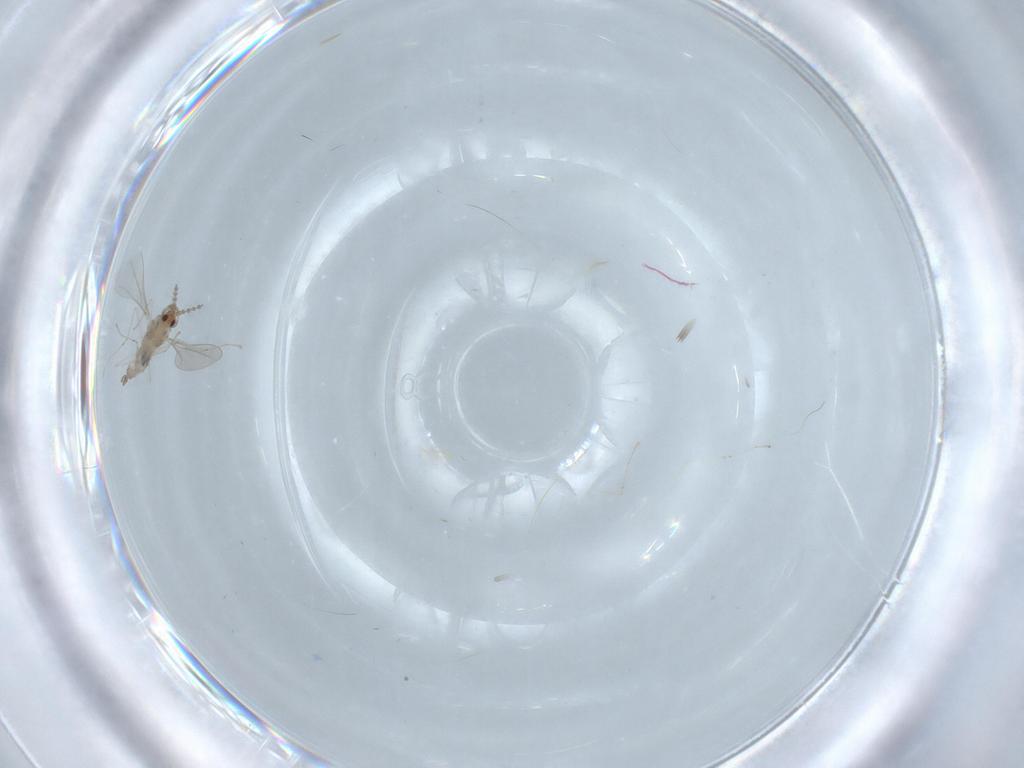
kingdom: Animalia
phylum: Arthropoda
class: Insecta
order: Diptera
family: Cecidomyiidae
